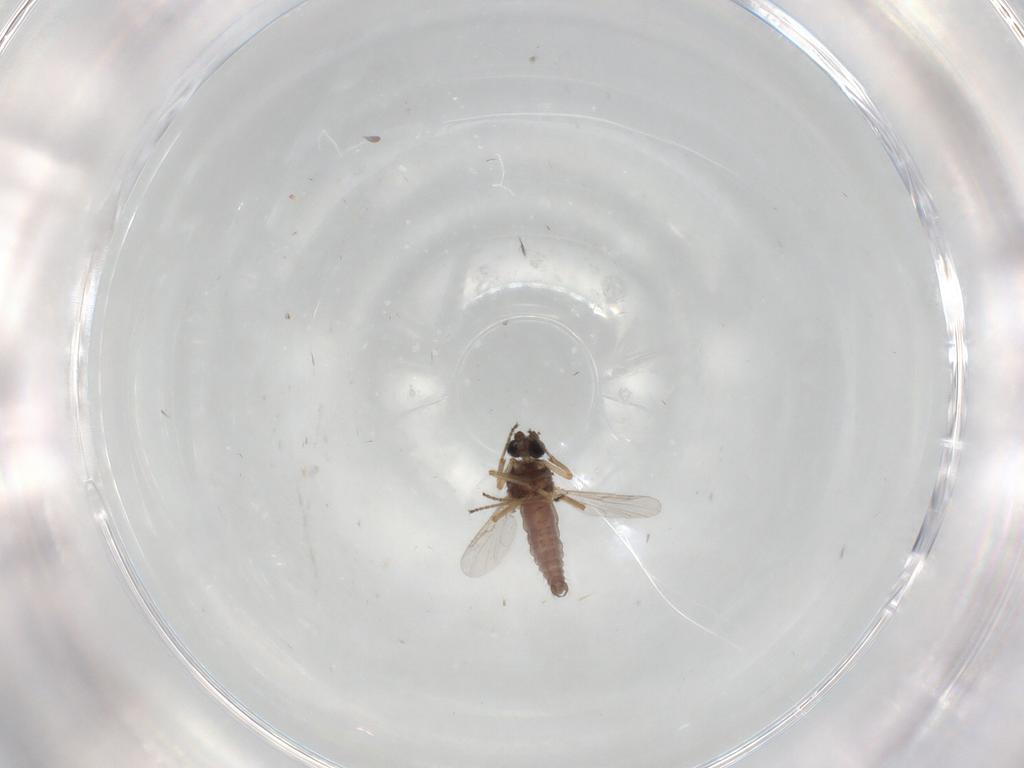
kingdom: Animalia
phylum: Arthropoda
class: Insecta
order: Diptera
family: Ceratopogonidae
